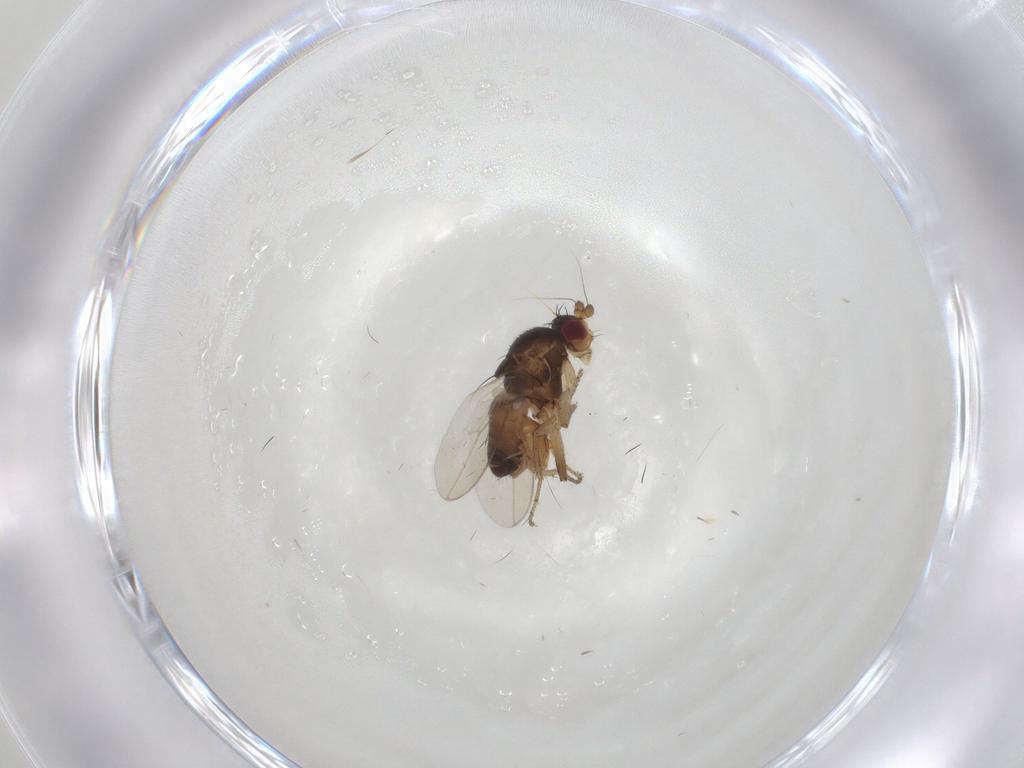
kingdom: Animalia
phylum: Arthropoda
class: Insecta
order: Diptera
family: Sphaeroceridae
